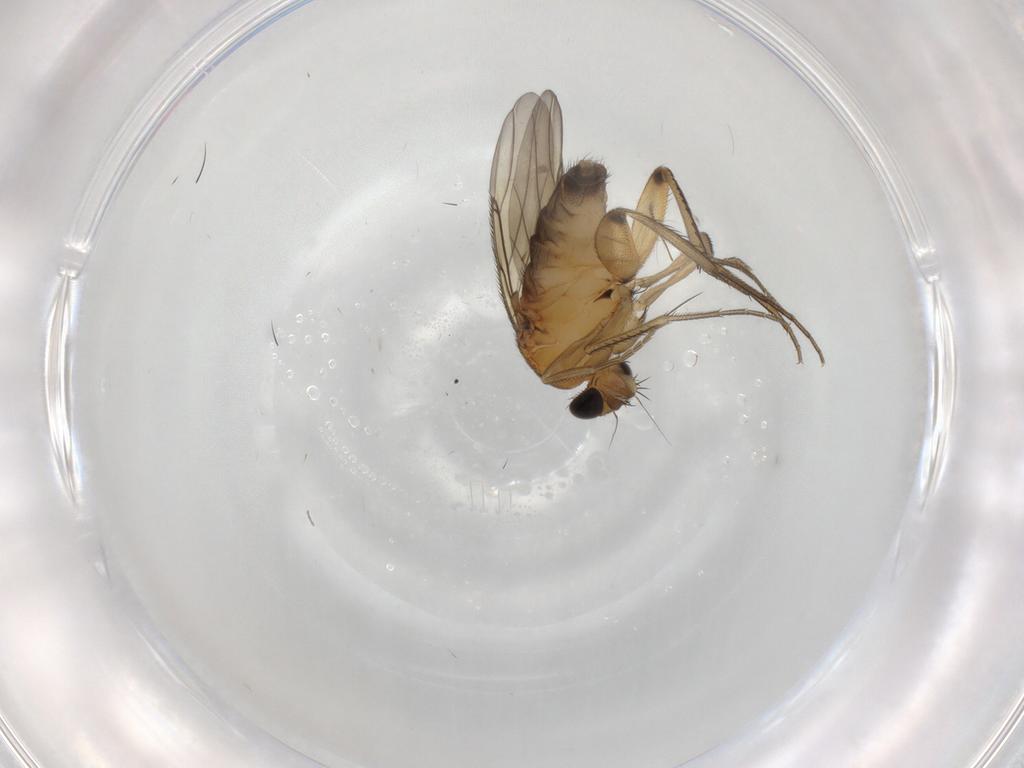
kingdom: Animalia
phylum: Arthropoda
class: Insecta
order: Diptera
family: Phoridae
